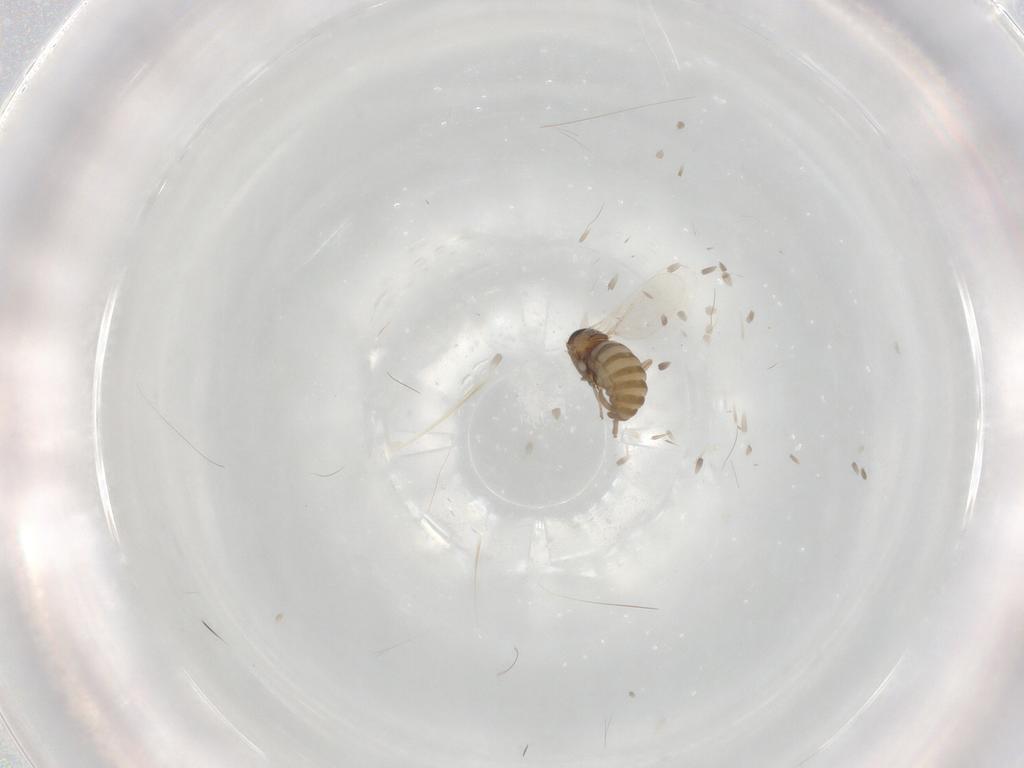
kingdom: Animalia
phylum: Arthropoda
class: Insecta
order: Diptera
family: Cecidomyiidae
